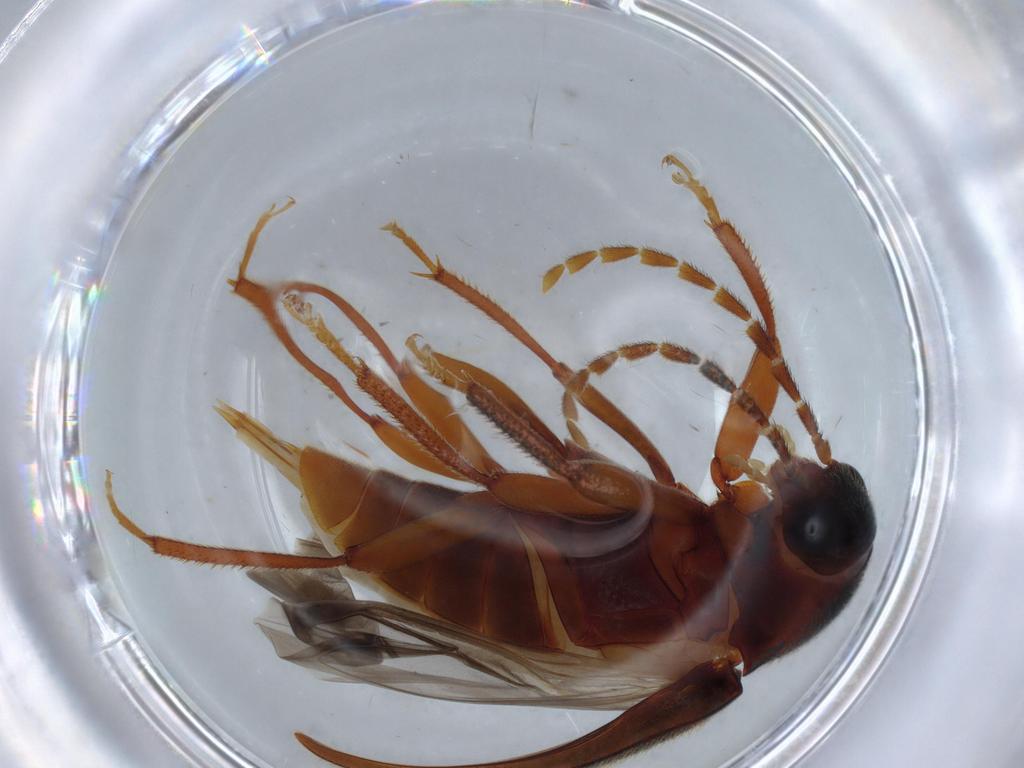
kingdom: Animalia
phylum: Arthropoda
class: Insecta
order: Coleoptera
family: Ptilodactylidae
